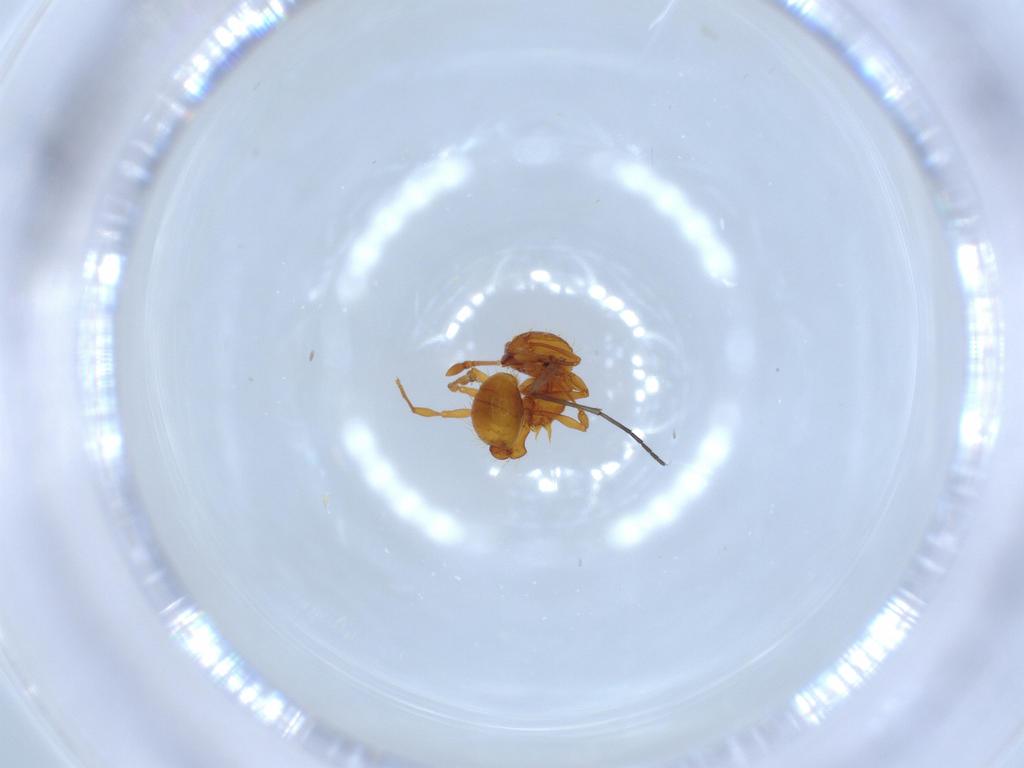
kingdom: Animalia
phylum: Arthropoda
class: Insecta
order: Hymenoptera
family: Formicidae
